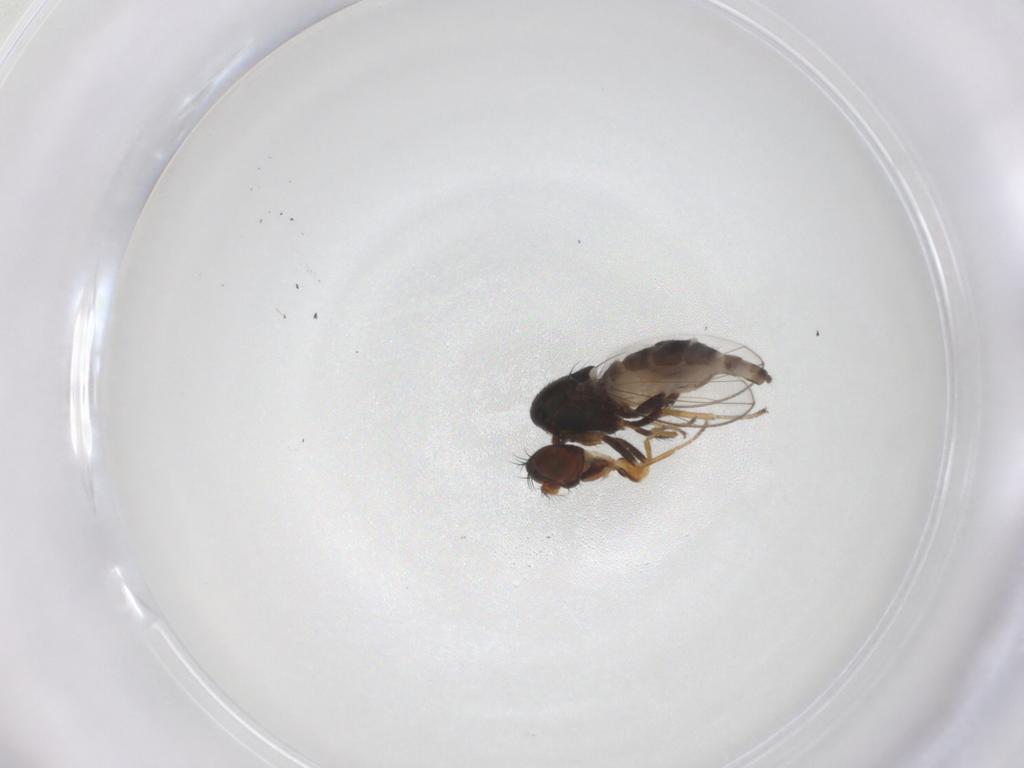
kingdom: Animalia
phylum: Arthropoda
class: Insecta
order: Diptera
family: Ephydridae
